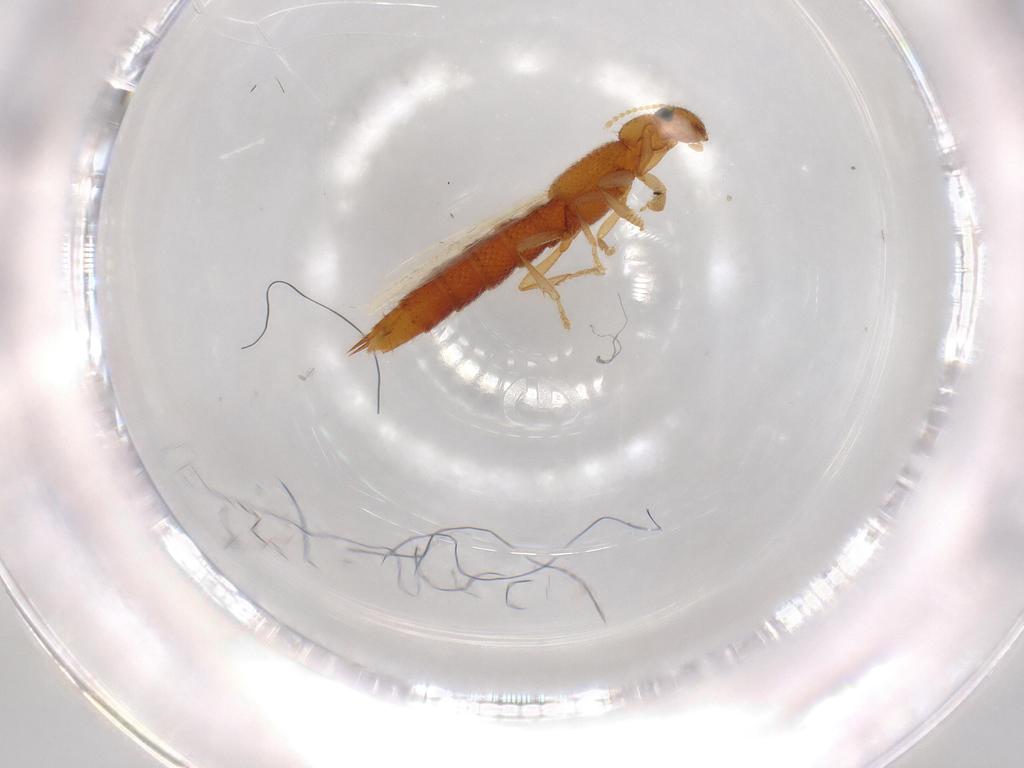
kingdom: Animalia
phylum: Arthropoda
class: Insecta
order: Coleoptera
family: Staphylinidae
